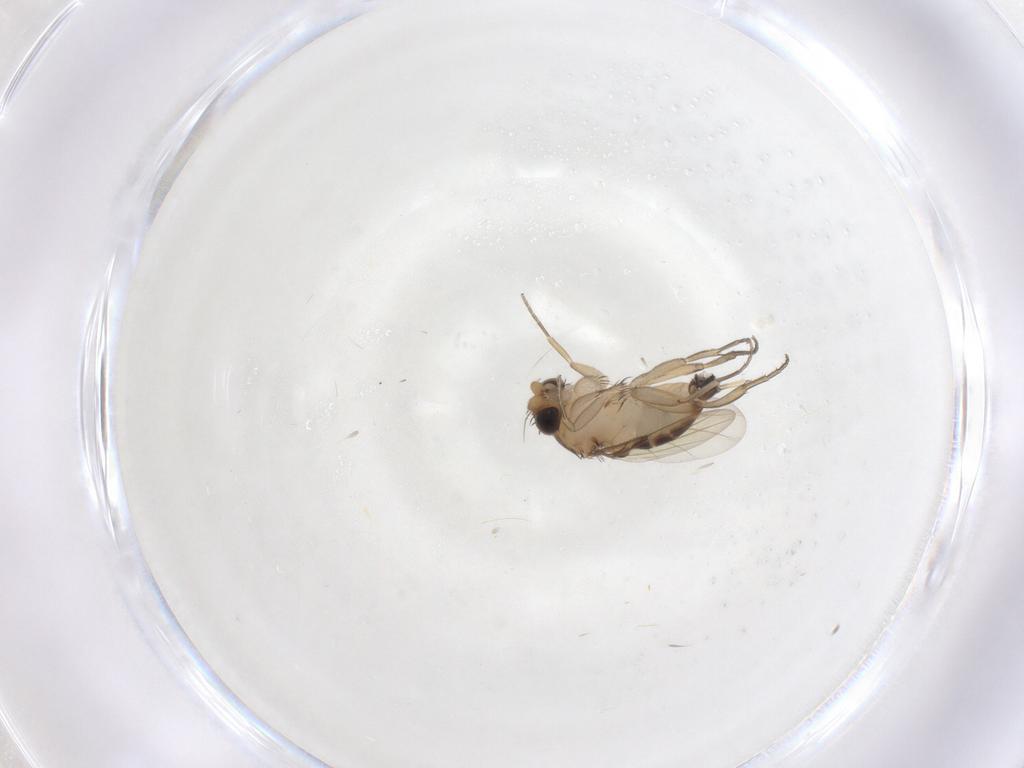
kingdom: Animalia
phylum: Arthropoda
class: Insecta
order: Diptera
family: Phoridae
